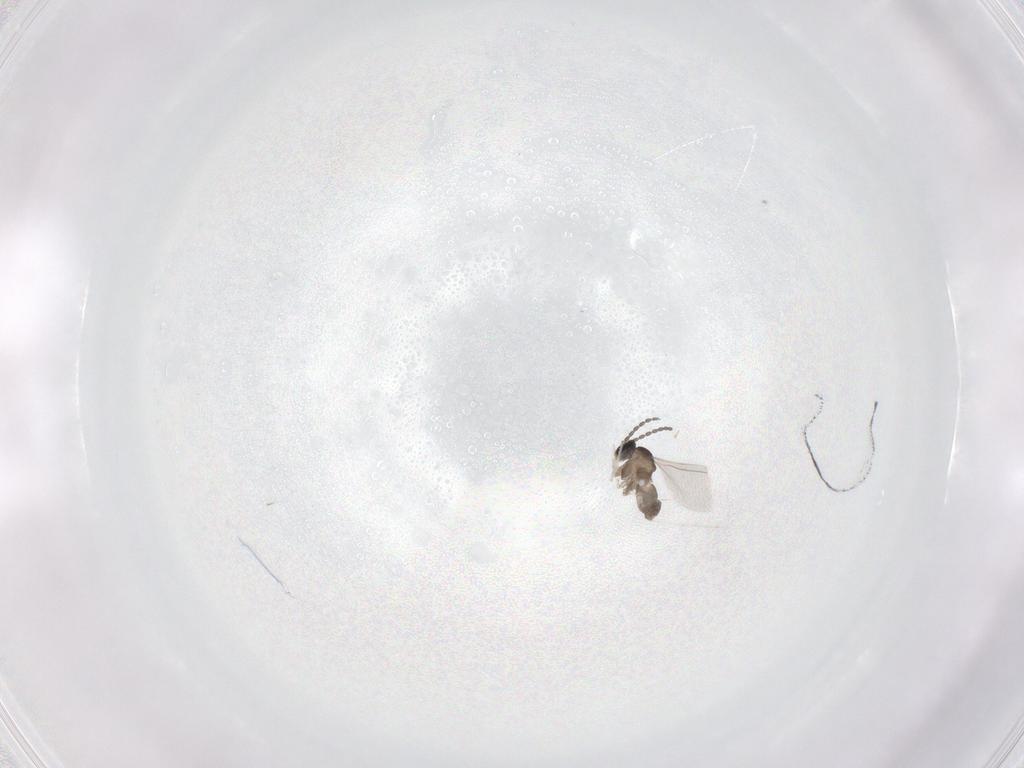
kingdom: Animalia
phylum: Arthropoda
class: Insecta
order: Diptera
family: Cecidomyiidae
